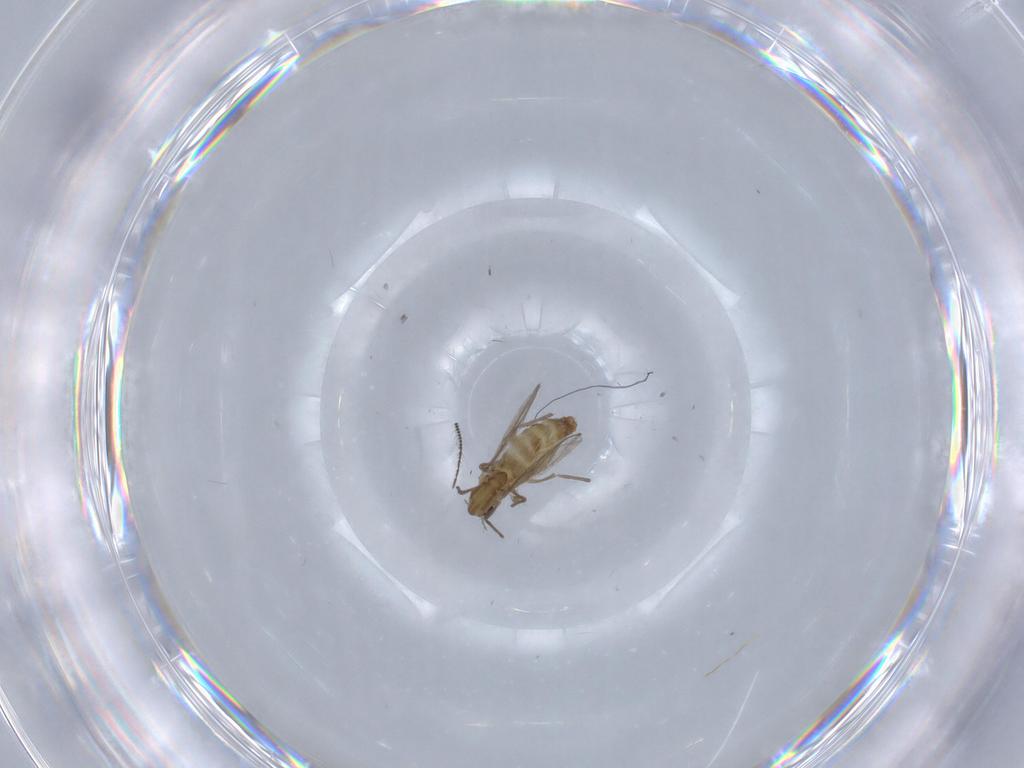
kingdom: Animalia
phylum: Arthropoda
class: Insecta
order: Diptera
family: Chironomidae
